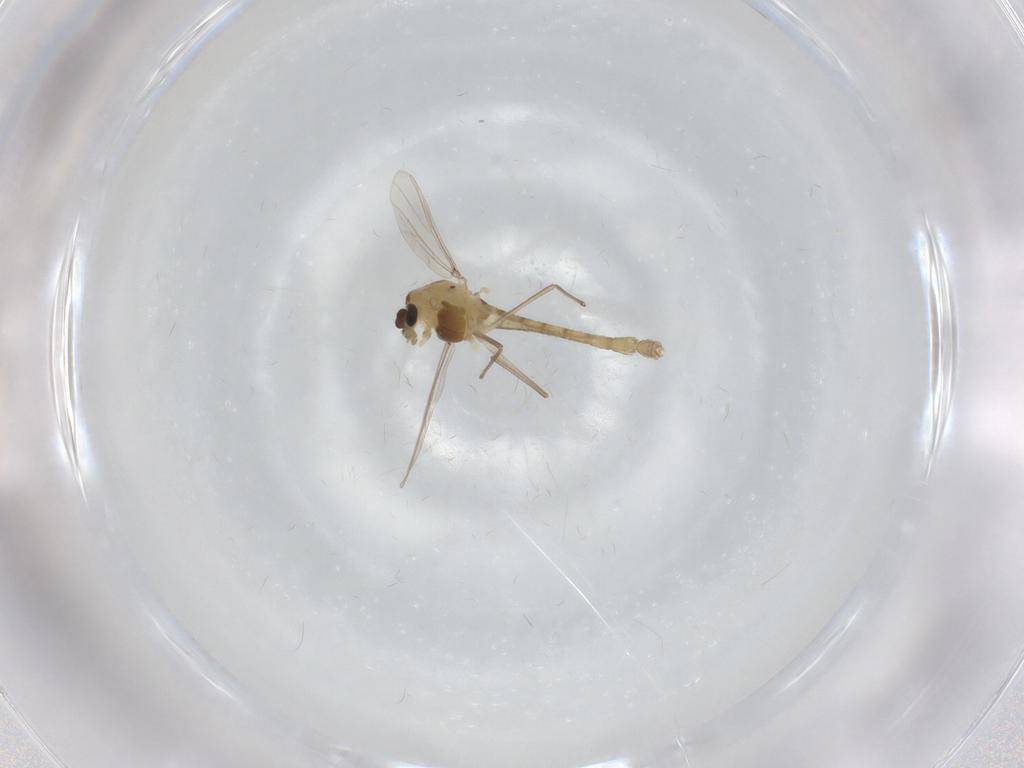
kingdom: Animalia
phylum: Arthropoda
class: Insecta
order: Diptera
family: Chironomidae
